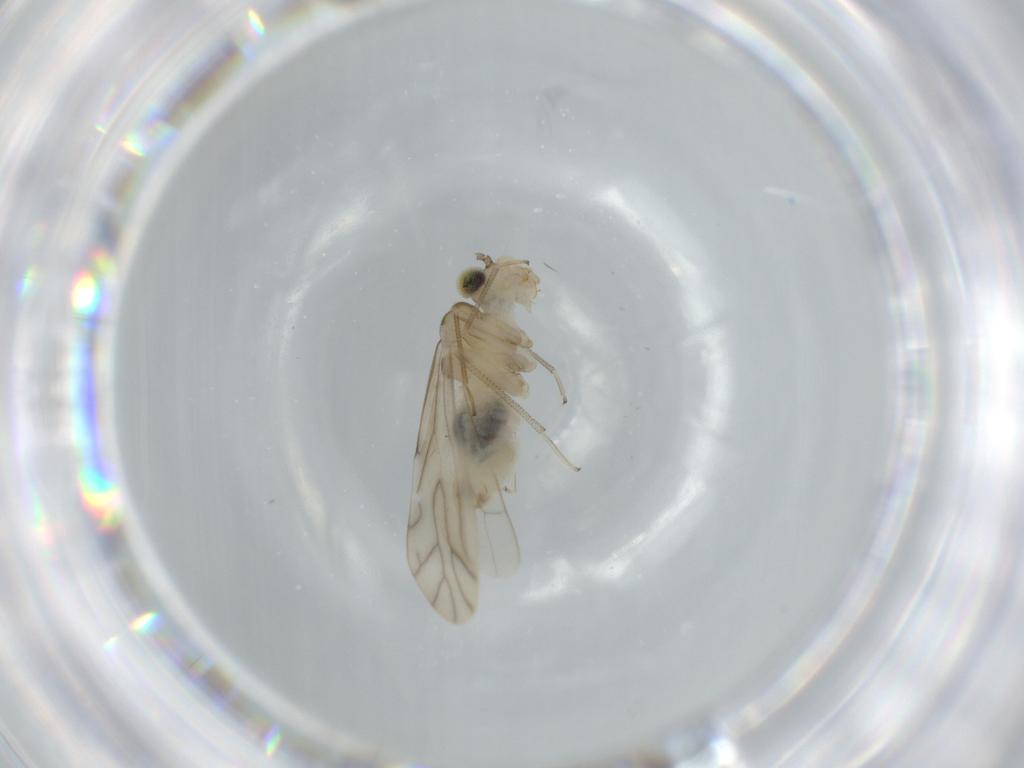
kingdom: Animalia
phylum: Arthropoda
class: Insecta
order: Psocodea
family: Caeciliusidae
